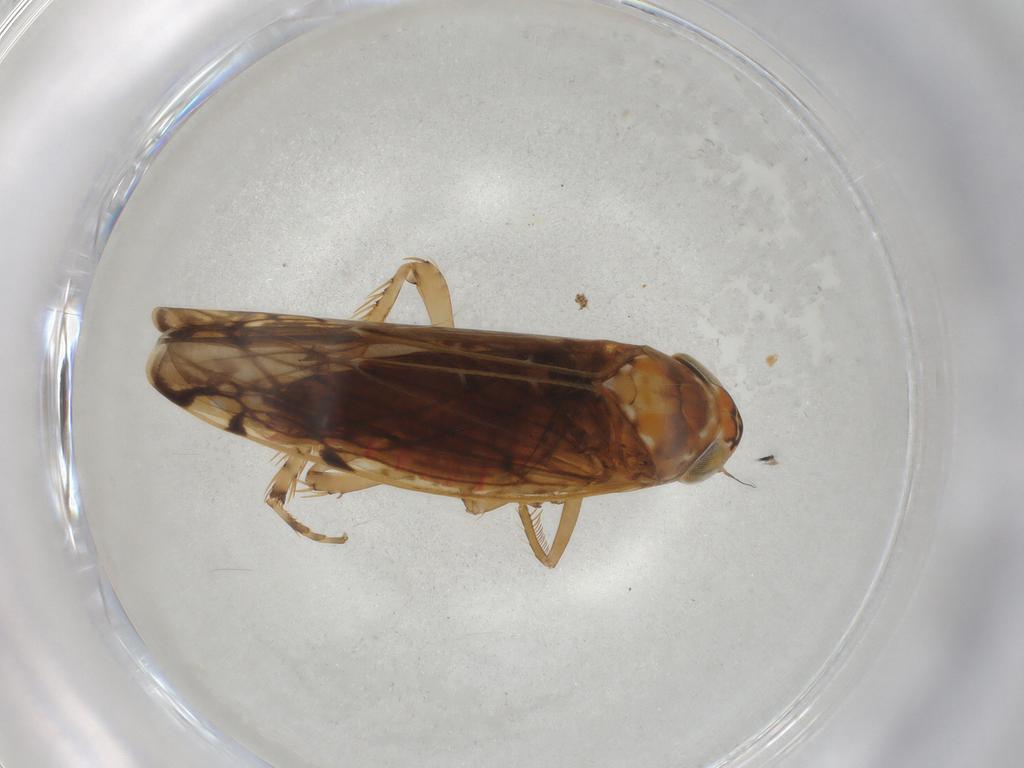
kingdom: Animalia
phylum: Arthropoda
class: Insecta
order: Hemiptera
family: Cicadellidae
